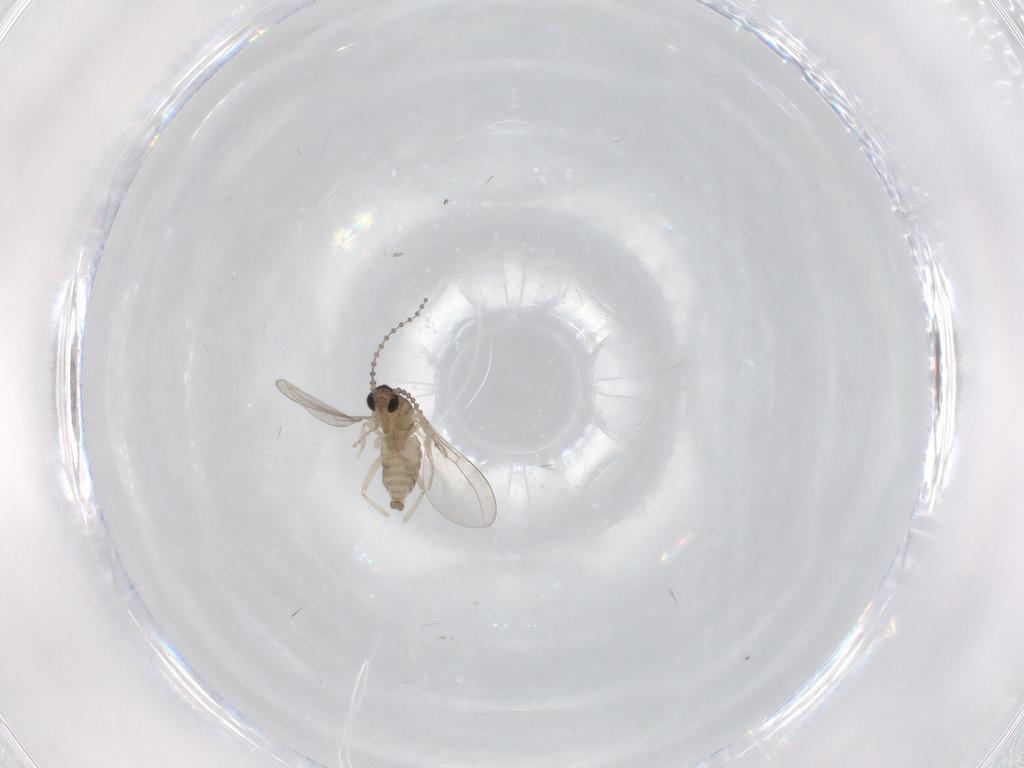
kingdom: Animalia
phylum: Arthropoda
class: Insecta
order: Diptera
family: Cecidomyiidae
